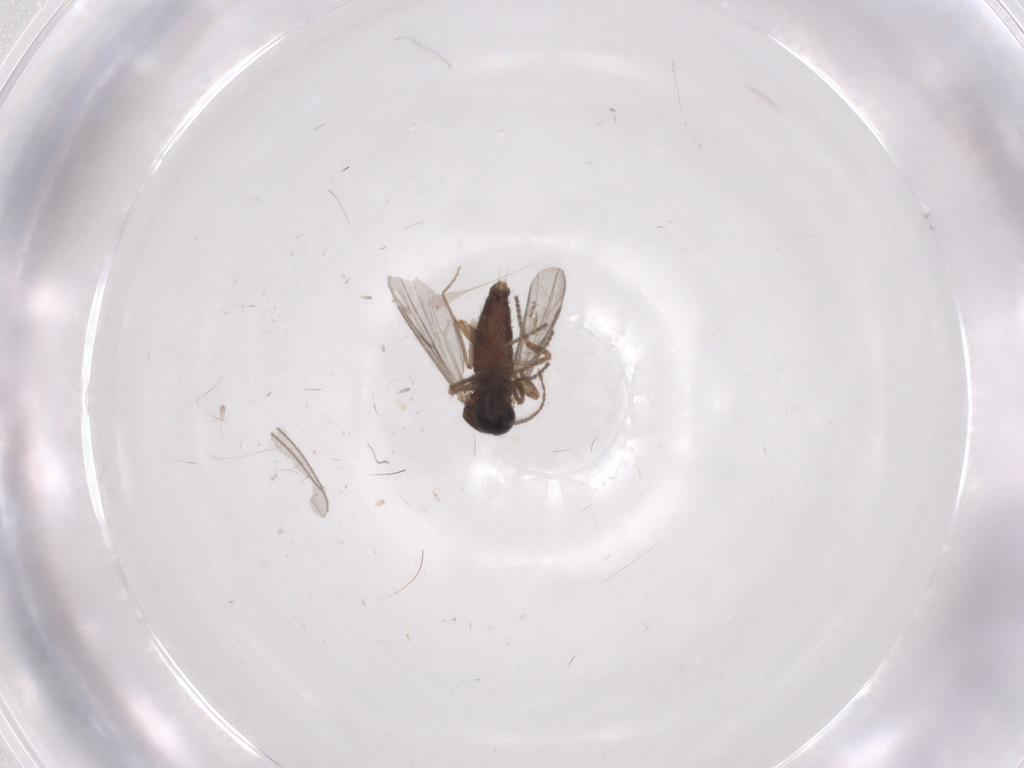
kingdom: Animalia
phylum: Arthropoda
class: Insecta
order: Diptera
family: Ceratopogonidae
